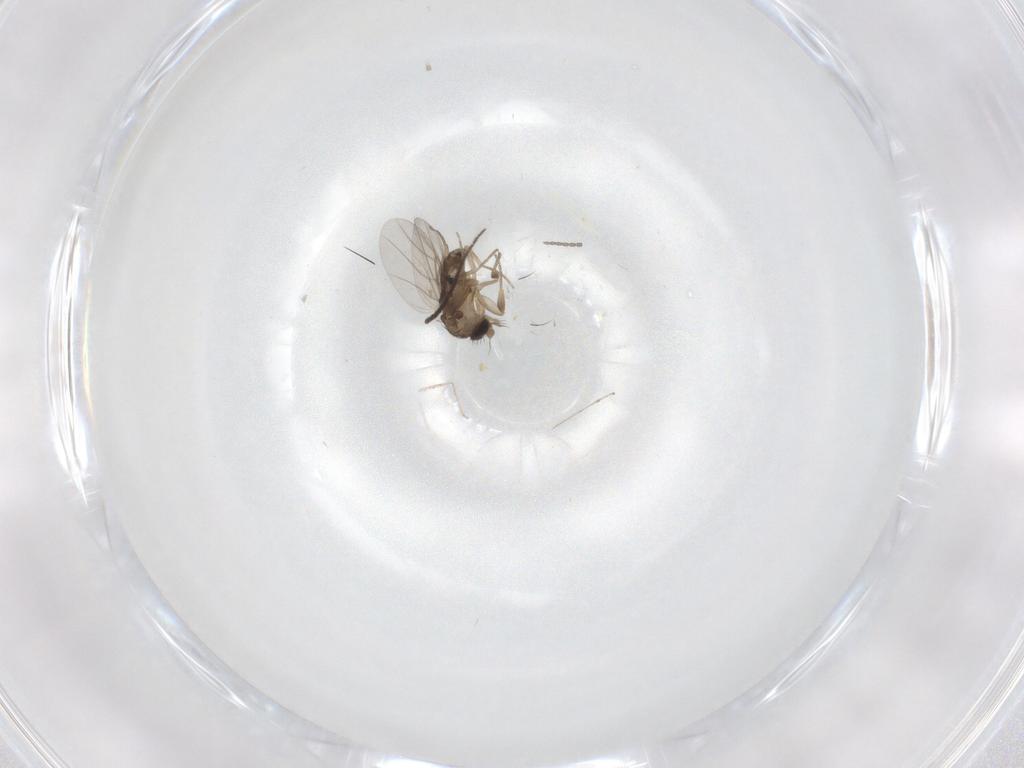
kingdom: Animalia
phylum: Arthropoda
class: Insecta
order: Diptera
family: Phoridae
